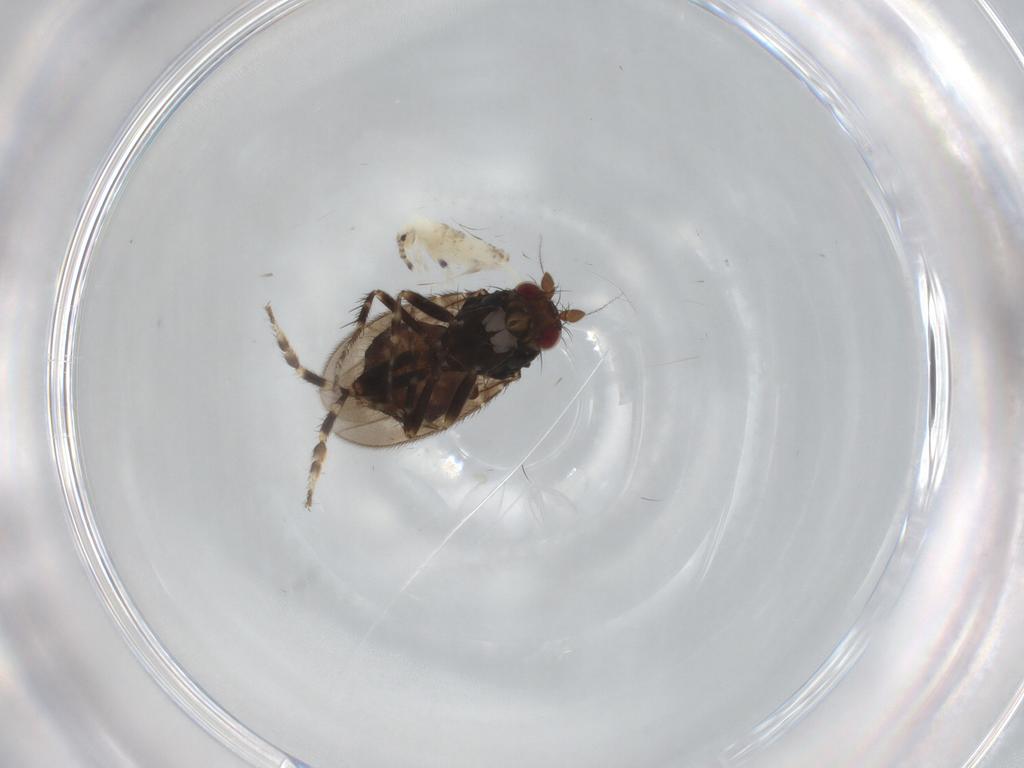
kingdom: Animalia
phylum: Arthropoda
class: Insecta
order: Diptera
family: Sphaeroceridae
